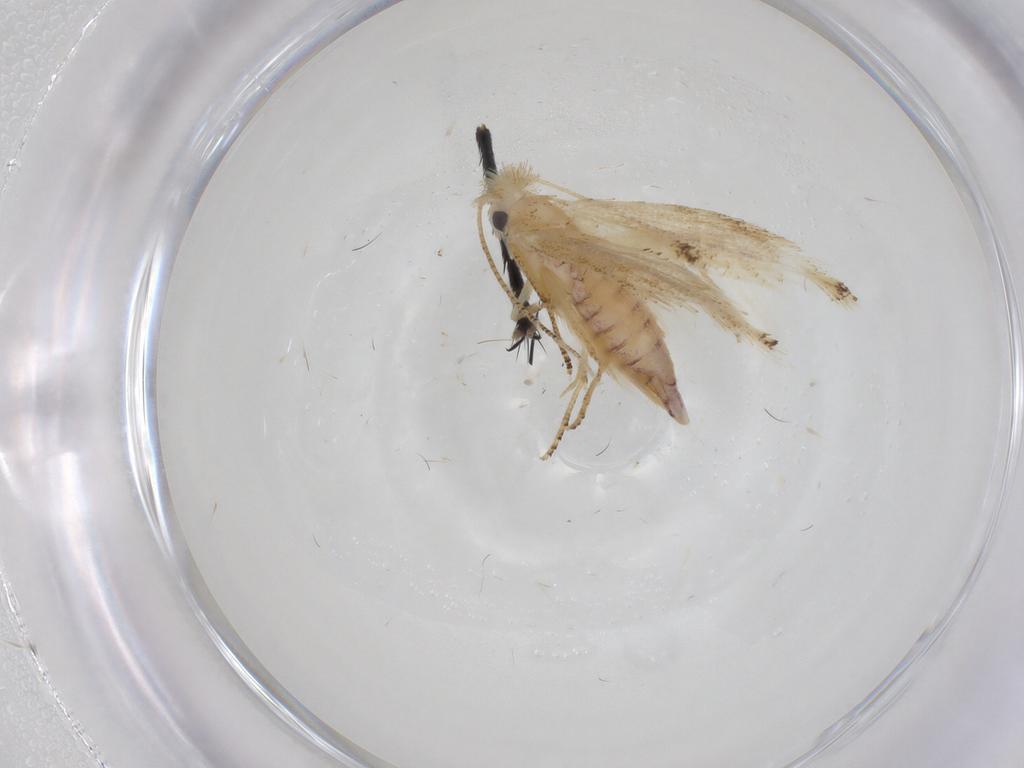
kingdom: Animalia
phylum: Arthropoda
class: Insecta
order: Lepidoptera
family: Bucculatricidae
